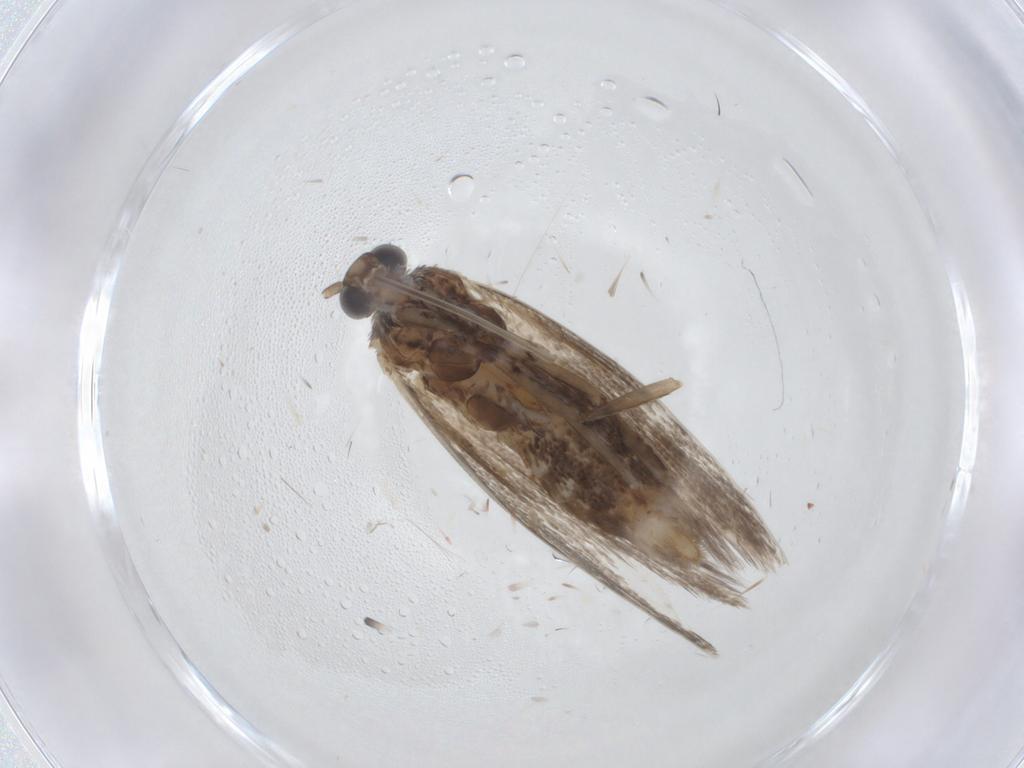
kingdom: Animalia
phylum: Arthropoda
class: Insecta
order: Lepidoptera
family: Gracillariidae
